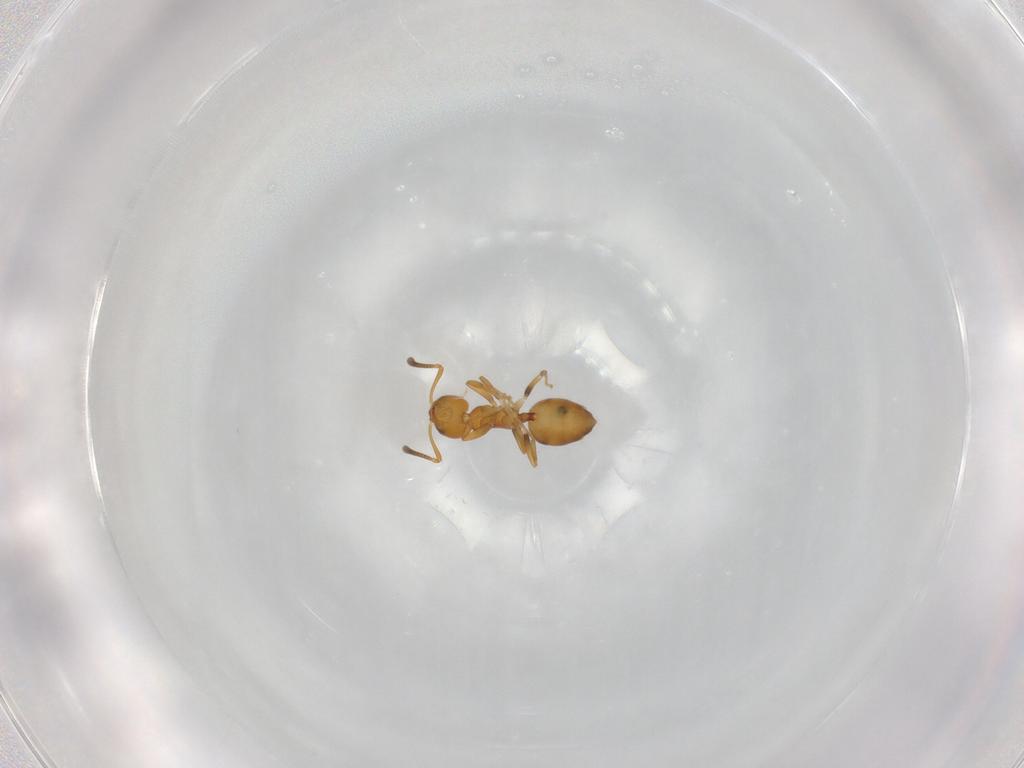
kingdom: Animalia
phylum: Arthropoda
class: Insecta
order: Hymenoptera
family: Formicidae
